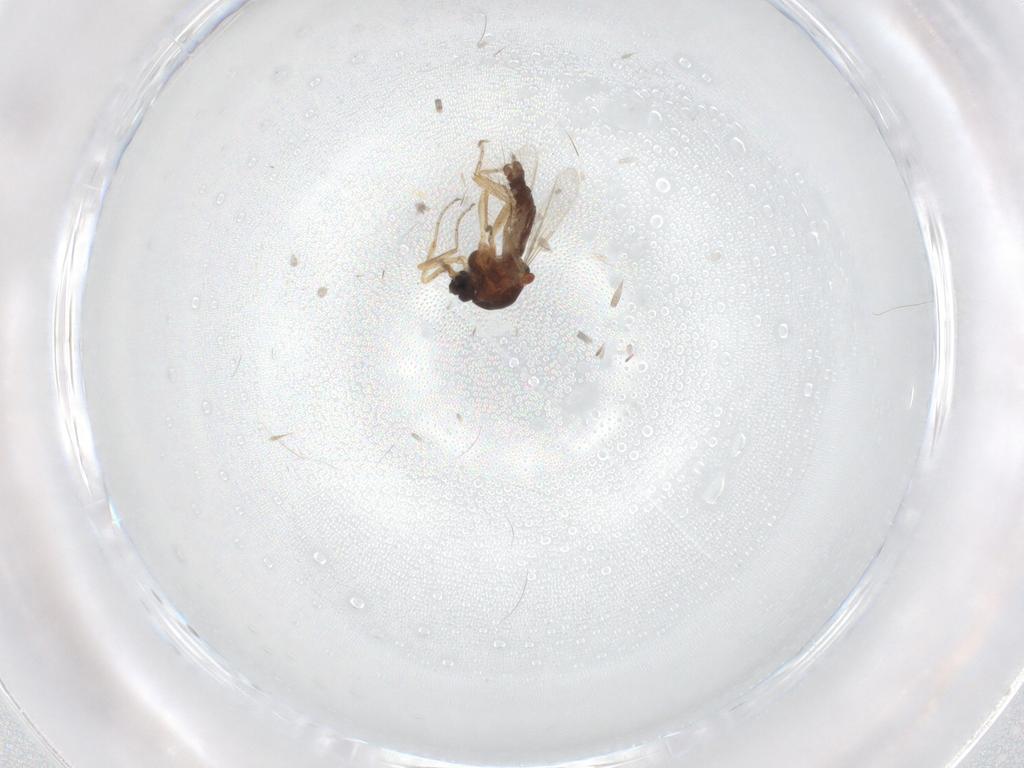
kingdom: Animalia
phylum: Arthropoda
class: Insecta
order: Diptera
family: Ceratopogonidae
